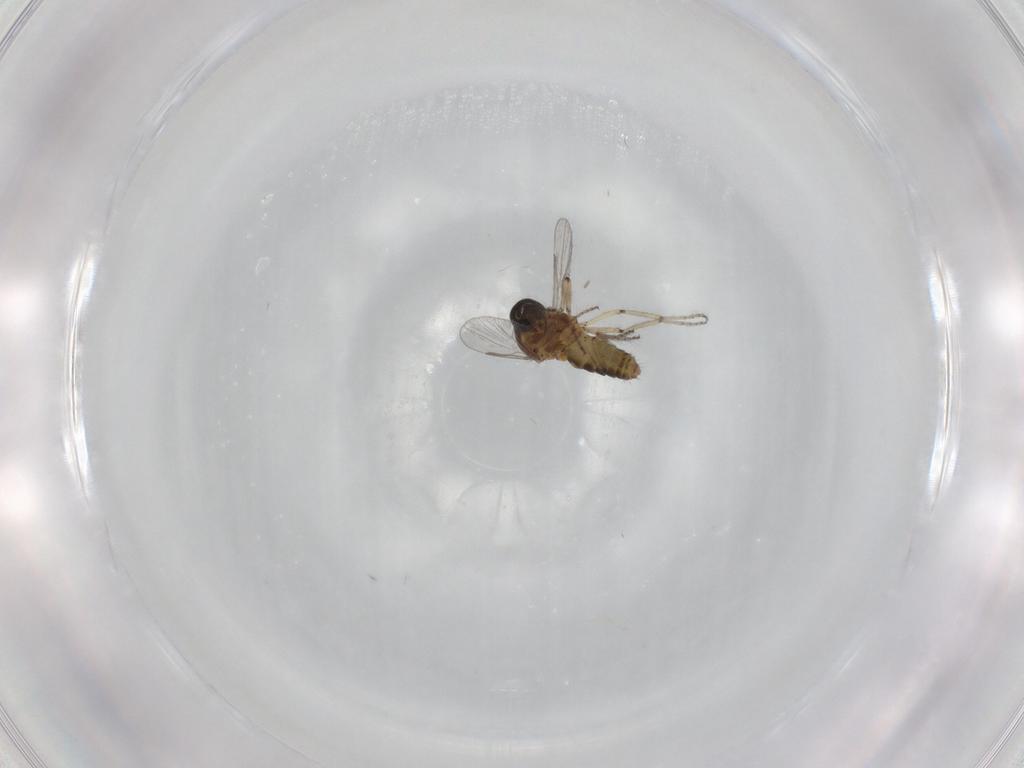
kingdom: Animalia
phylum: Arthropoda
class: Insecta
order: Diptera
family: Ceratopogonidae
